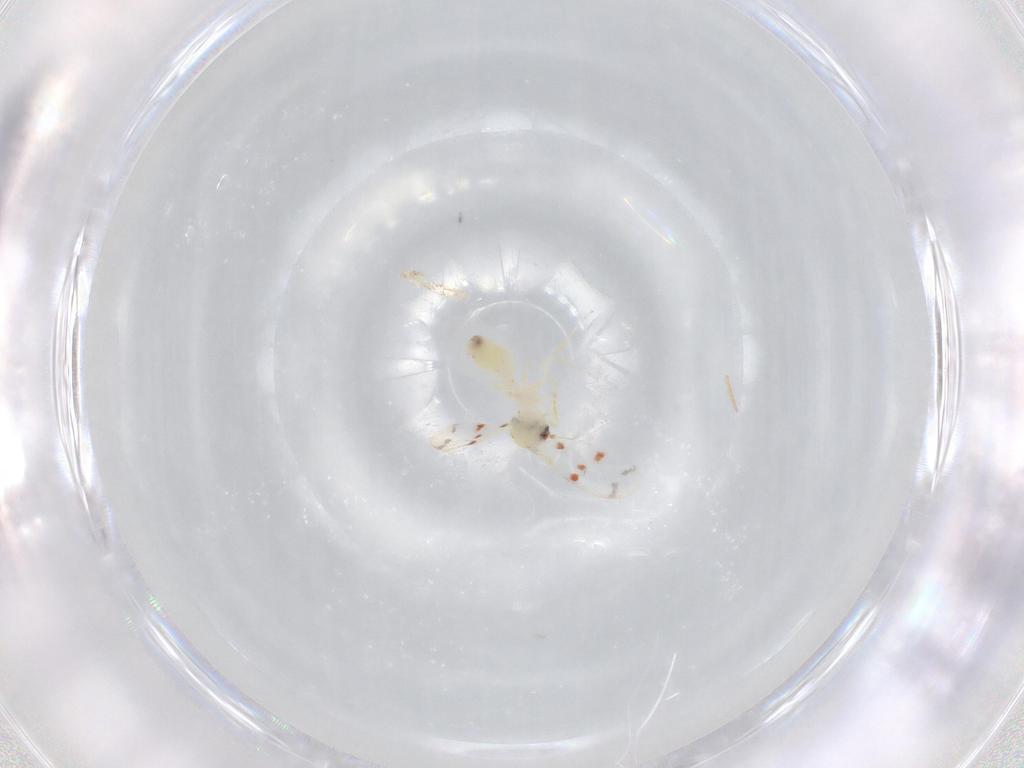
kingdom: Animalia
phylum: Arthropoda
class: Insecta
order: Hemiptera
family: Aleyrodidae
